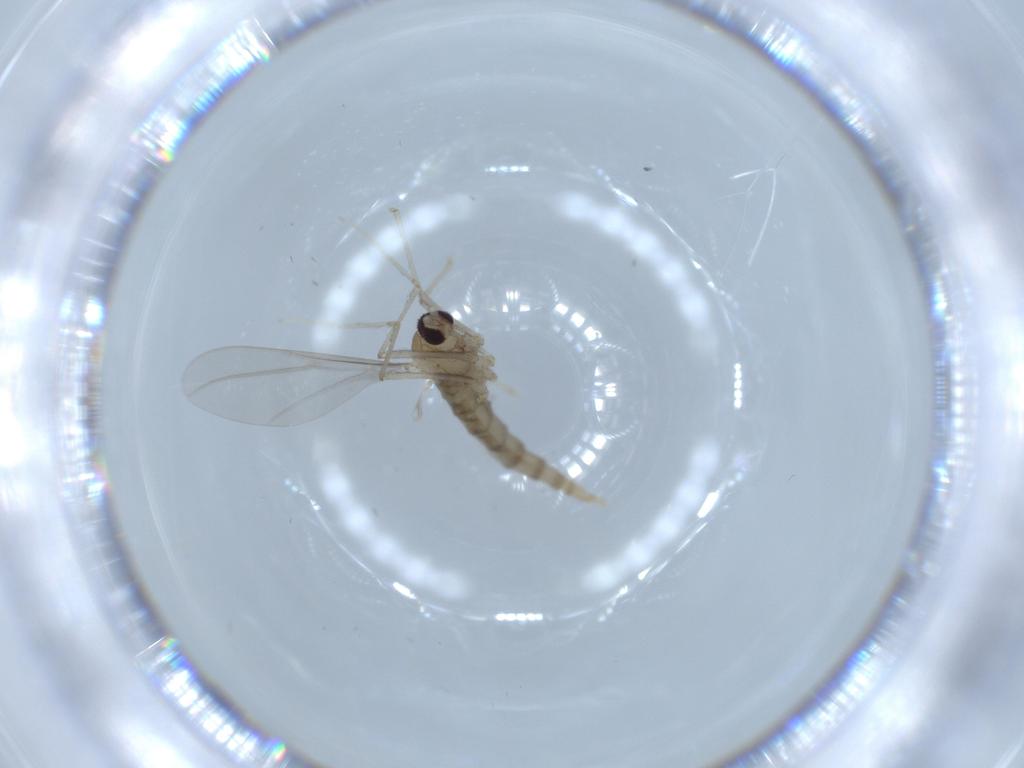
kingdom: Animalia
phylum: Arthropoda
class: Insecta
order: Diptera
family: Cecidomyiidae
